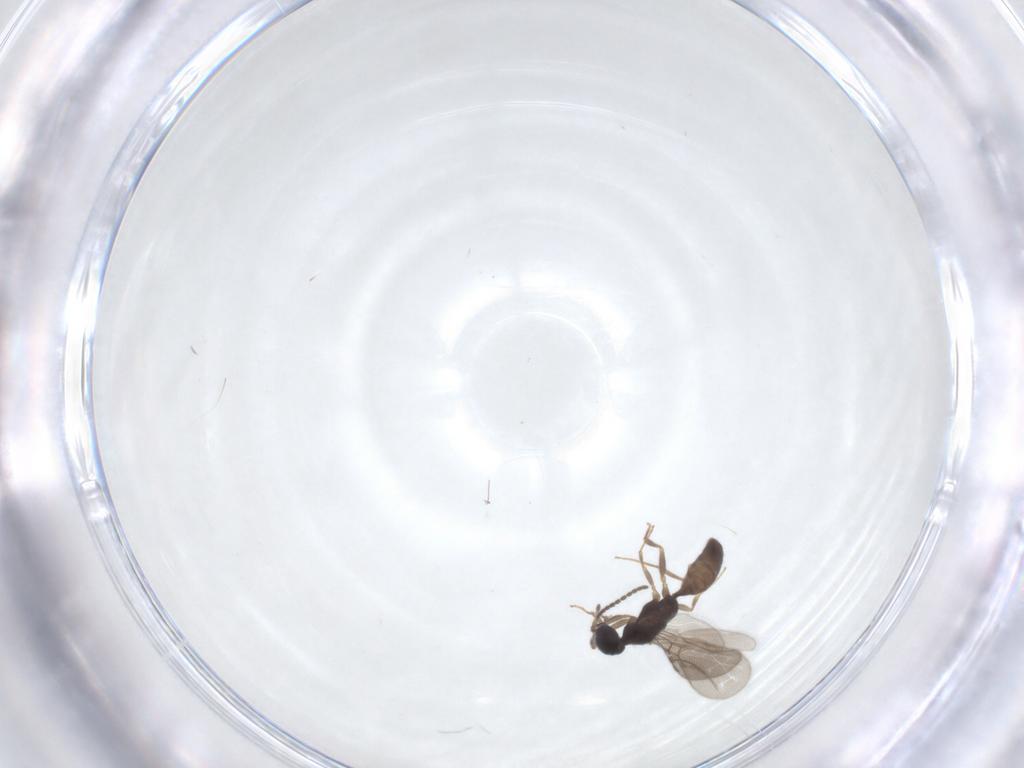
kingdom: Animalia
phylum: Arthropoda
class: Insecta
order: Hymenoptera
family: Bethylidae
